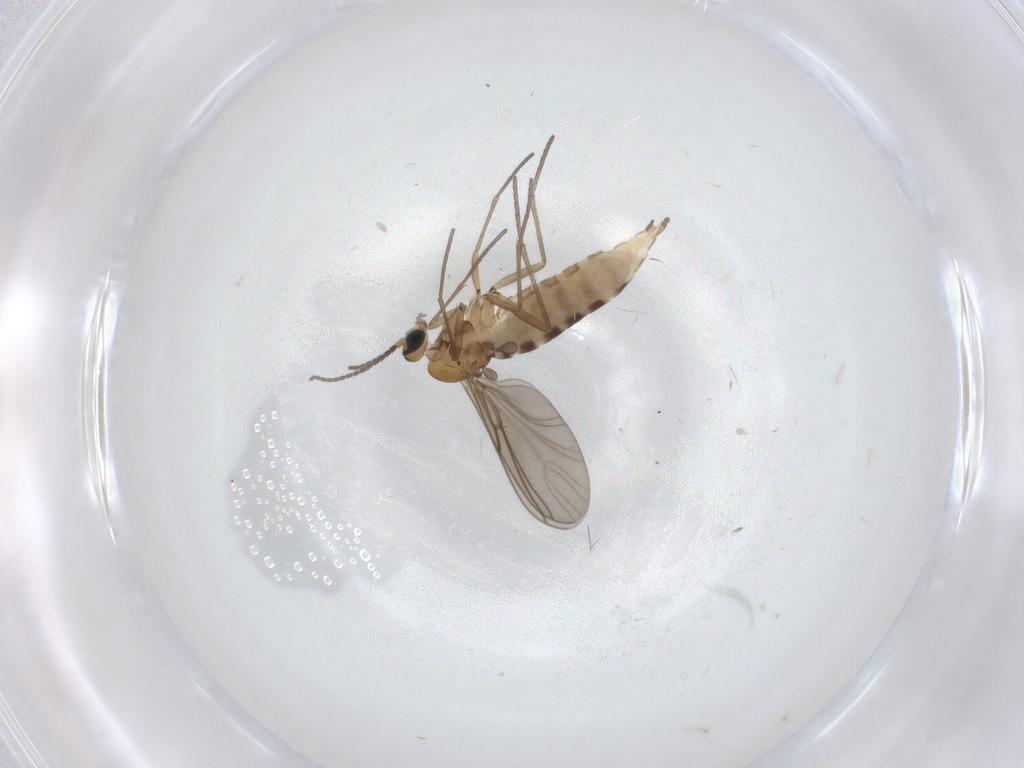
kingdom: Animalia
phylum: Arthropoda
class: Insecta
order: Diptera
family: Sciaridae
